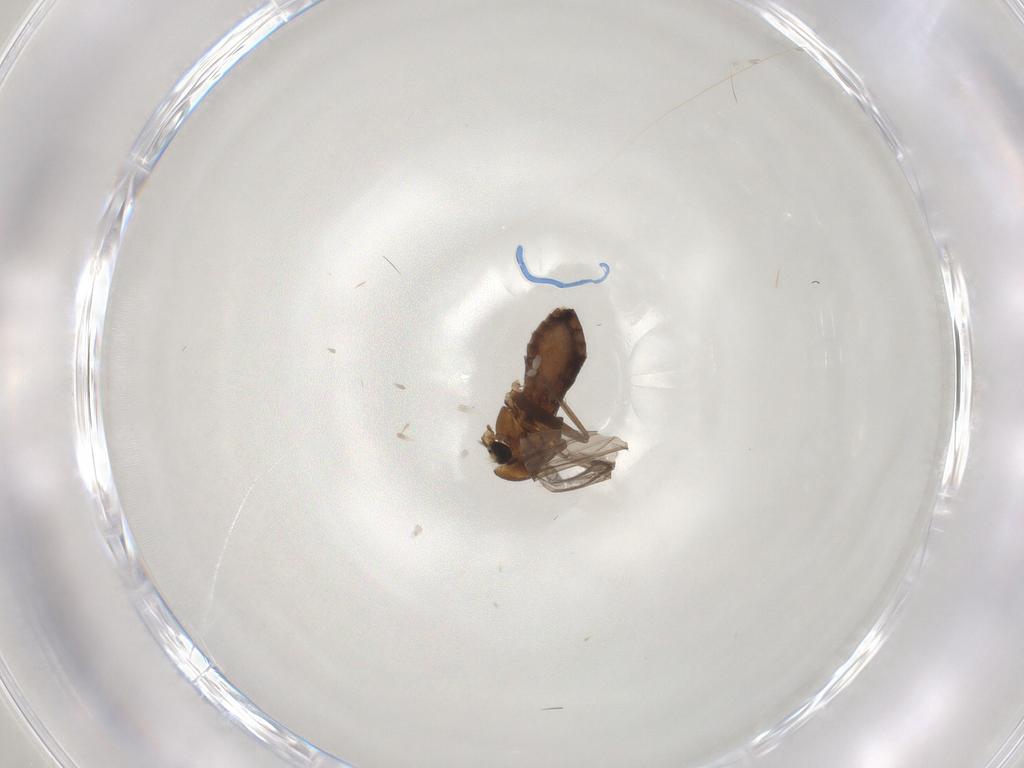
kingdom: Animalia
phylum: Arthropoda
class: Insecta
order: Diptera
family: Chironomidae
